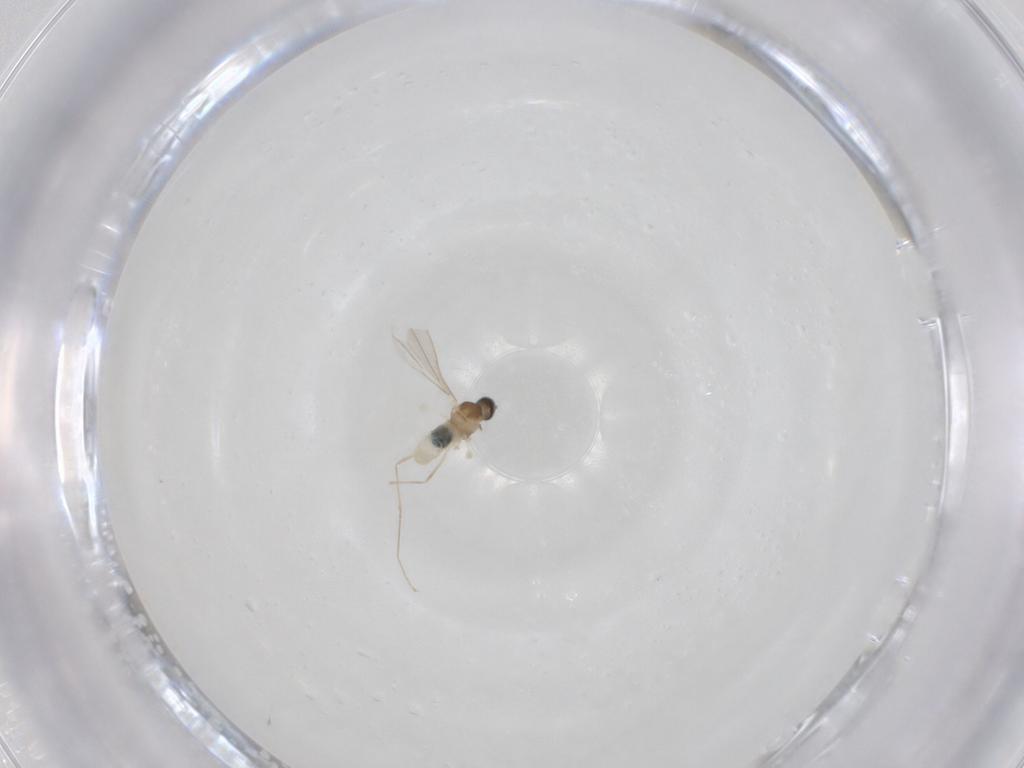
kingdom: Animalia
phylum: Arthropoda
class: Insecta
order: Diptera
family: Cecidomyiidae
